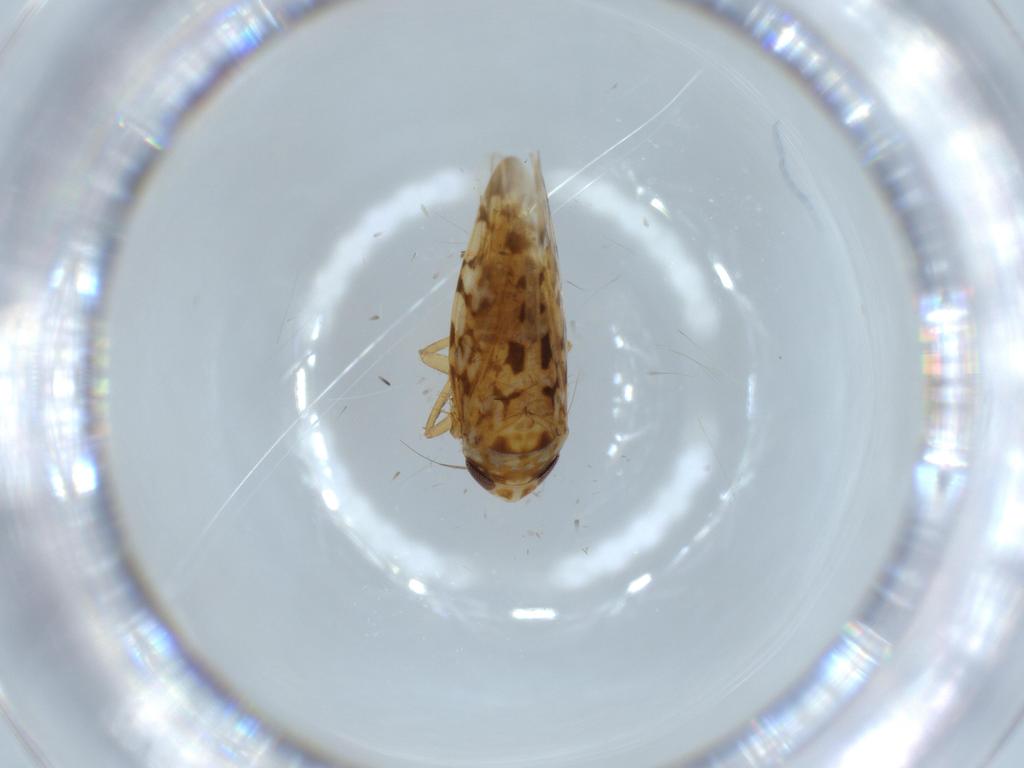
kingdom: Animalia
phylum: Arthropoda
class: Insecta
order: Hemiptera
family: Cicadellidae
